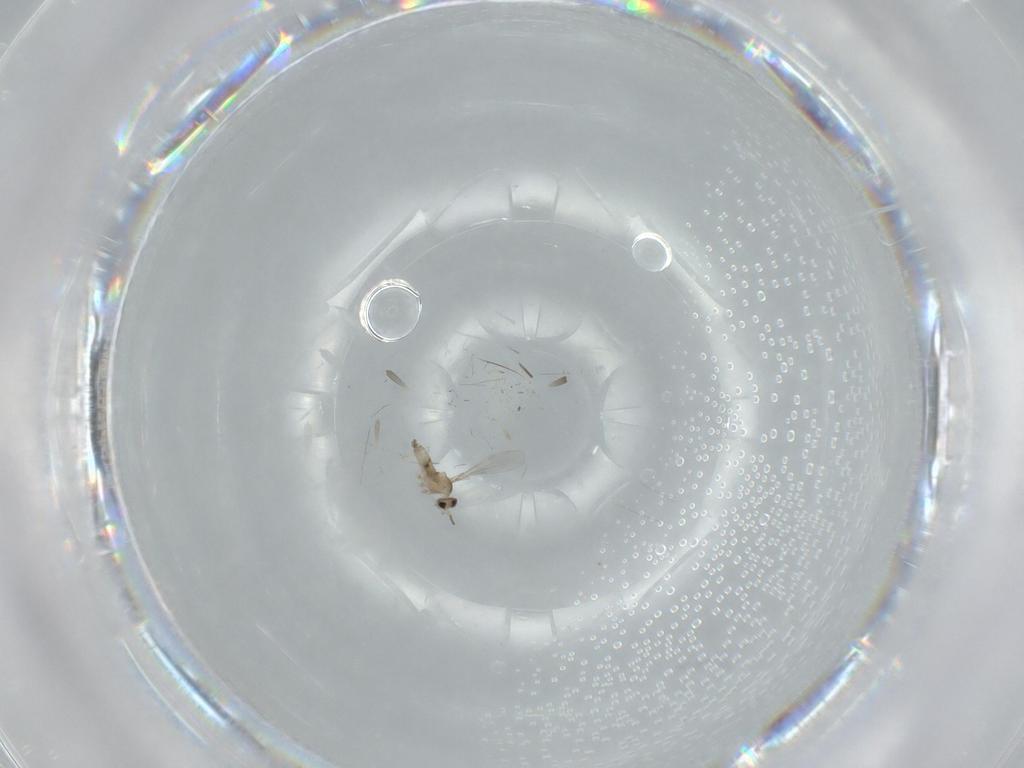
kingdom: Animalia
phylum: Arthropoda
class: Insecta
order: Diptera
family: Cecidomyiidae
